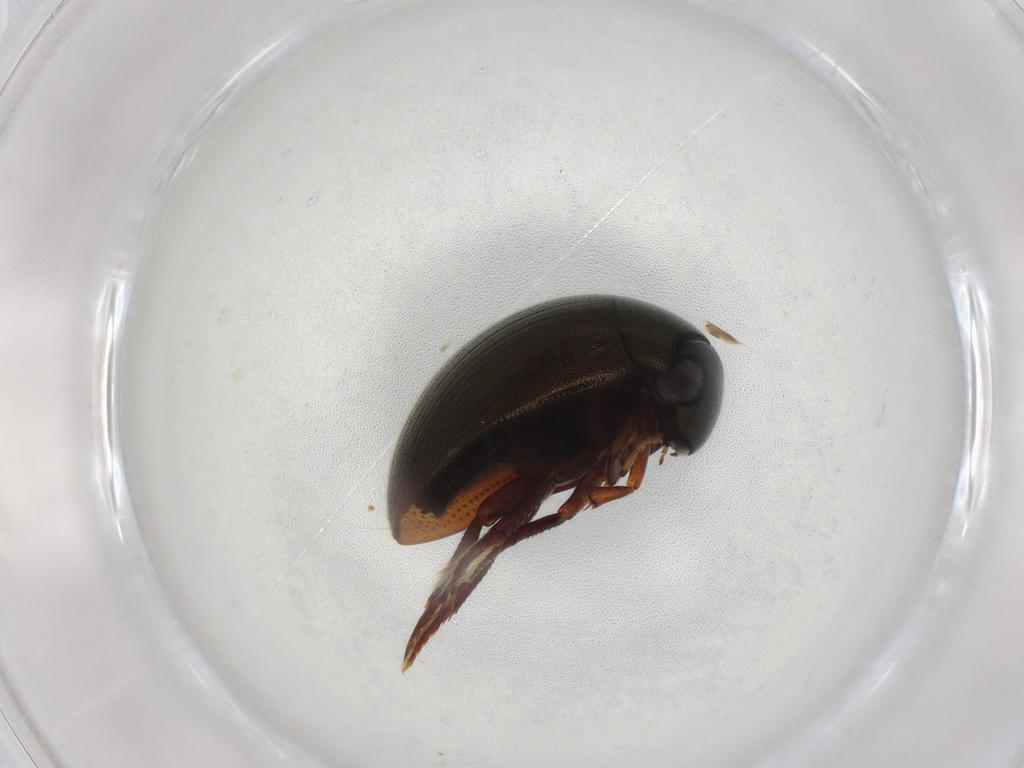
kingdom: Animalia
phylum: Arthropoda
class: Insecta
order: Coleoptera
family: Hydrophilidae
